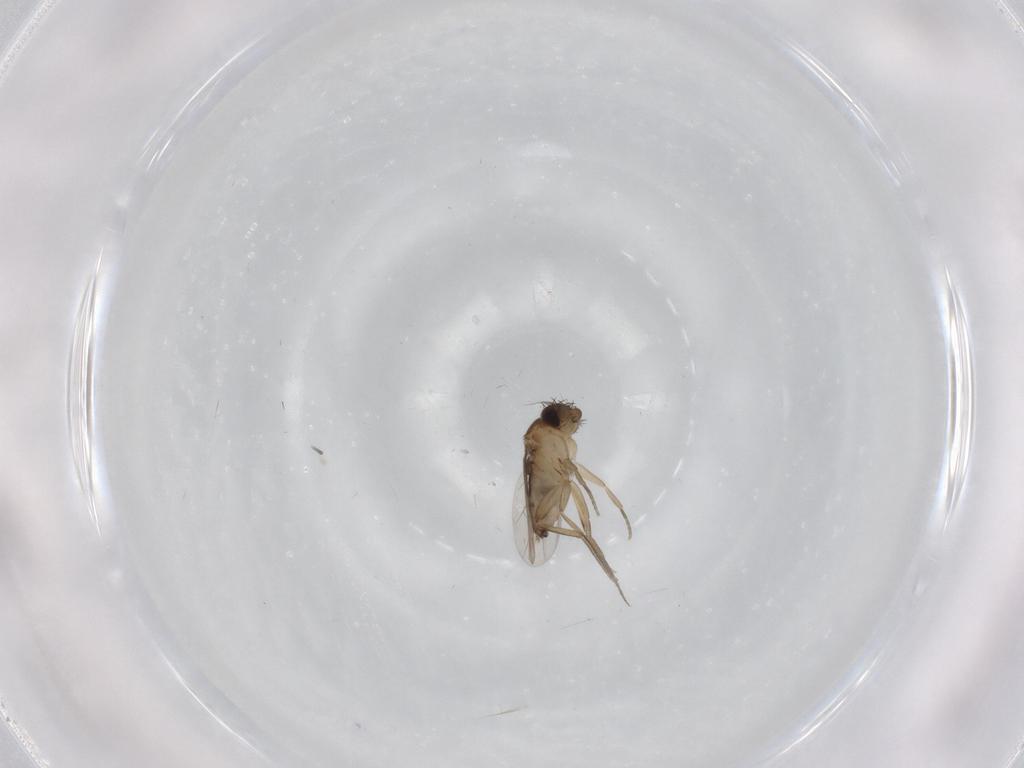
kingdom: Animalia
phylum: Arthropoda
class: Insecta
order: Diptera
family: Phoridae
